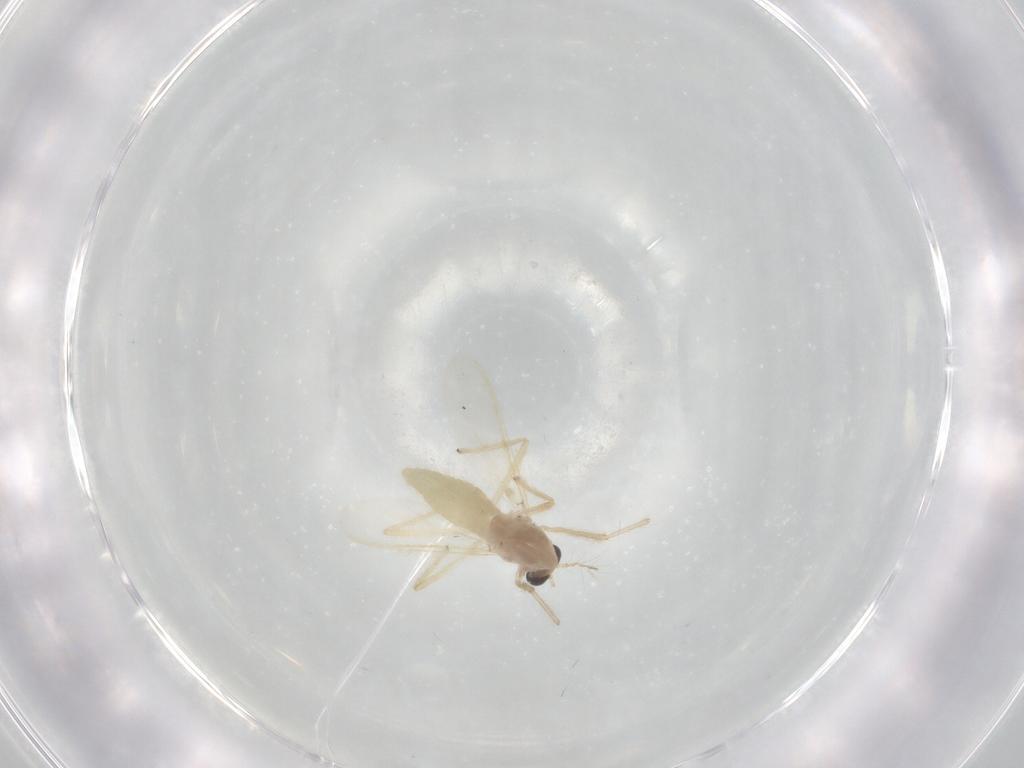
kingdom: Animalia
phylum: Arthropoda
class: Insecta
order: Diptera
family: Chironomidae
